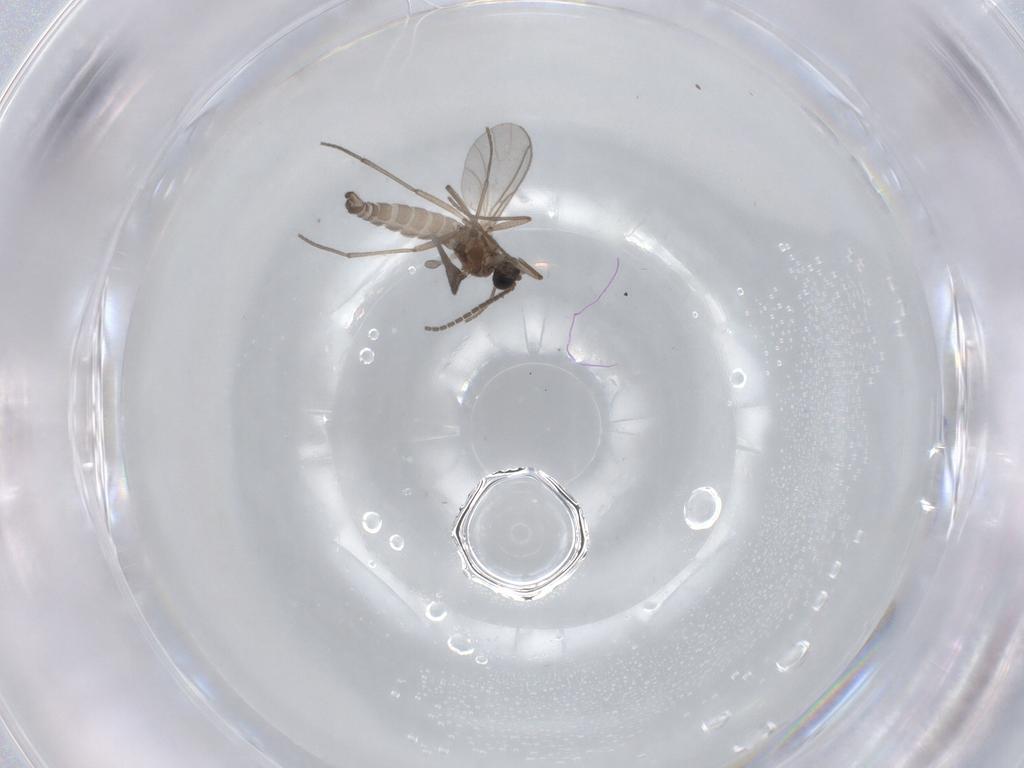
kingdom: Animalia
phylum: Arthropoda
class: Insecta
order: Diptera
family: Sciaridae
